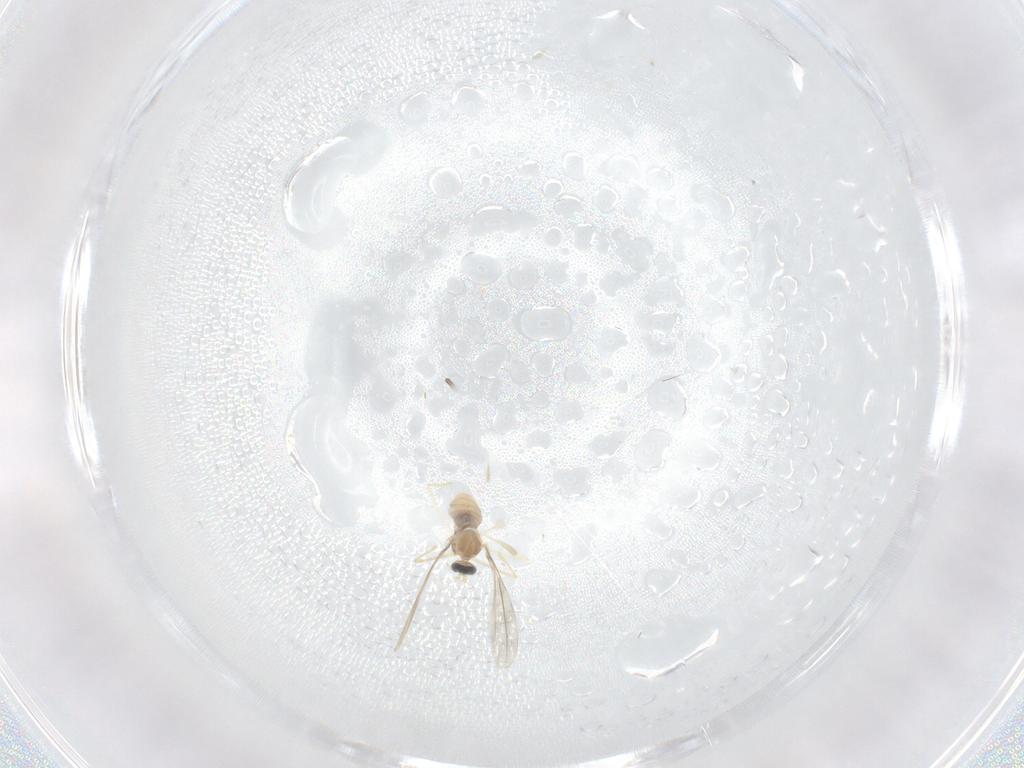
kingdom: Animalia
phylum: Arthropoda
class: Insecta
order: Diptera
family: Cecidomyiidae
